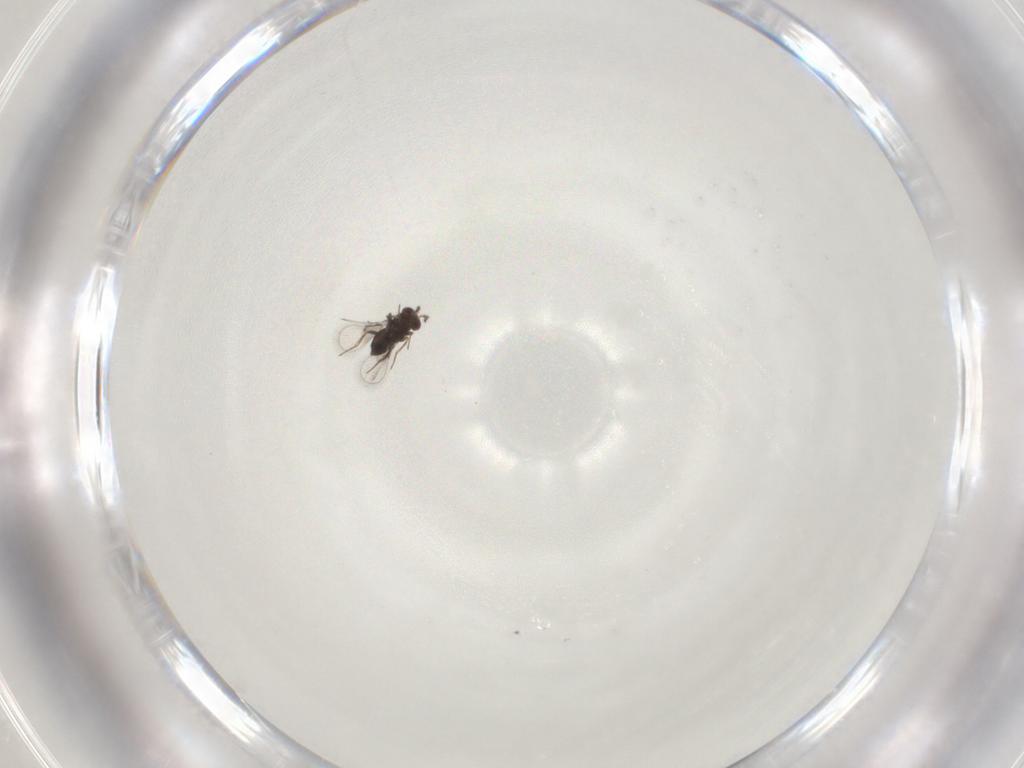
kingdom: Animalia
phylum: Arthropoda
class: Insecta
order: Hymenoptera
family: Trichogrammatidae
